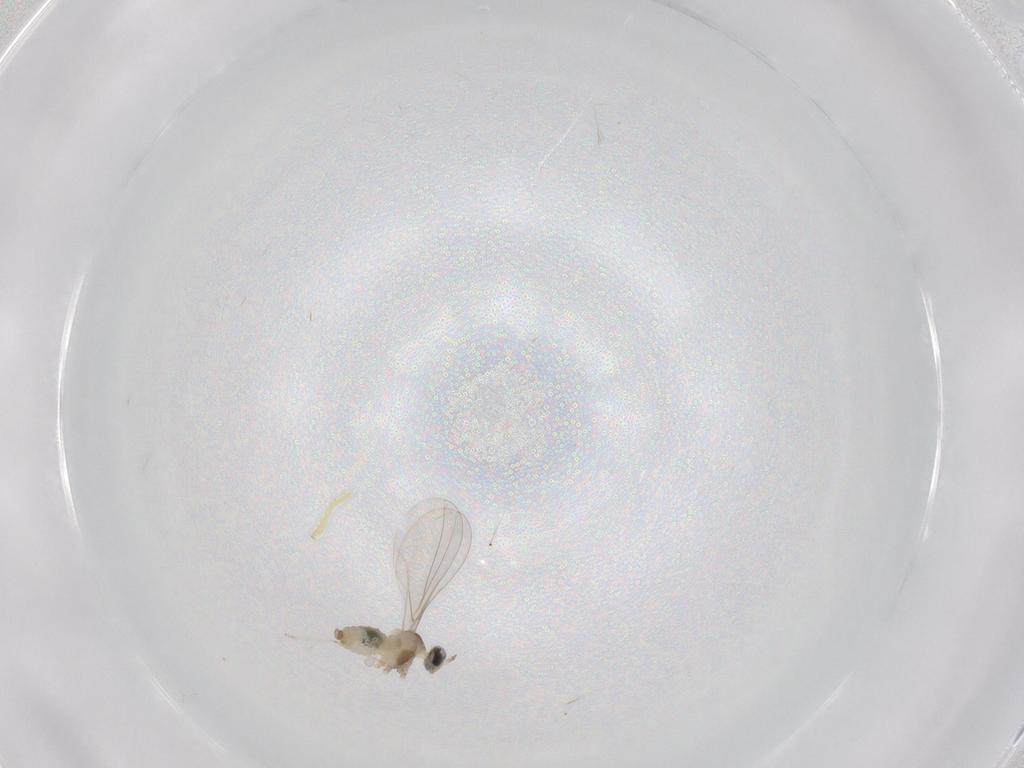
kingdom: Animalia
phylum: Arthropoda
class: Insecta
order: Diptera
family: Cecidomyiidae
